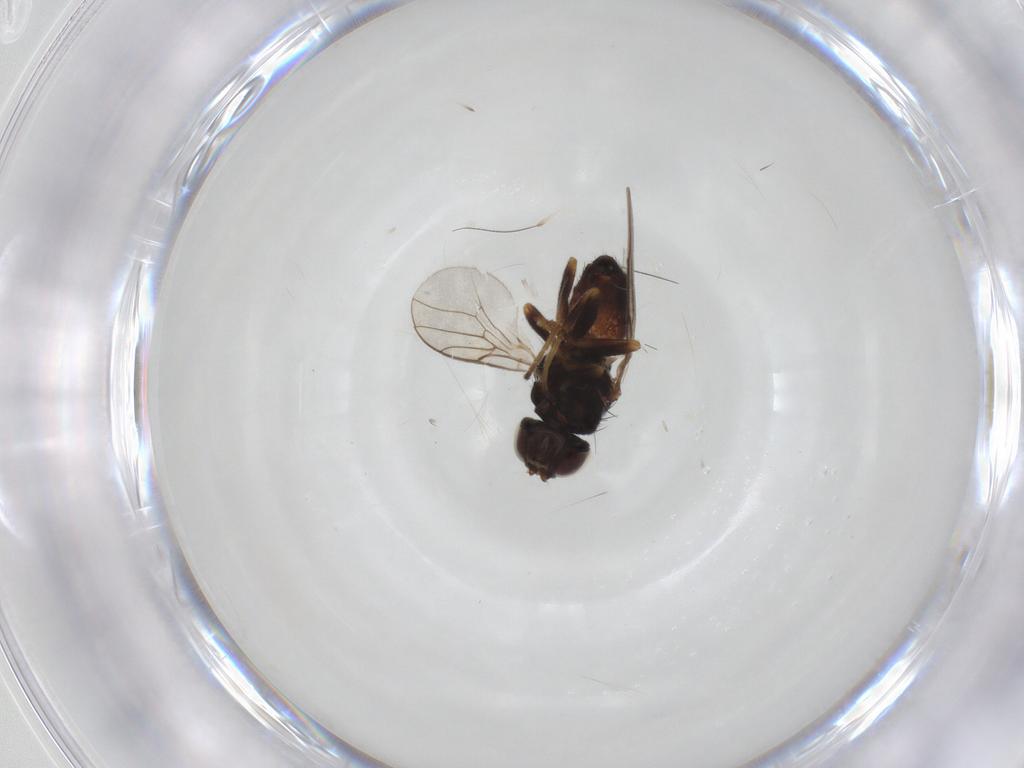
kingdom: Animalia
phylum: Arthropoda
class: Insecta
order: Diptera
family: Chloropidae
